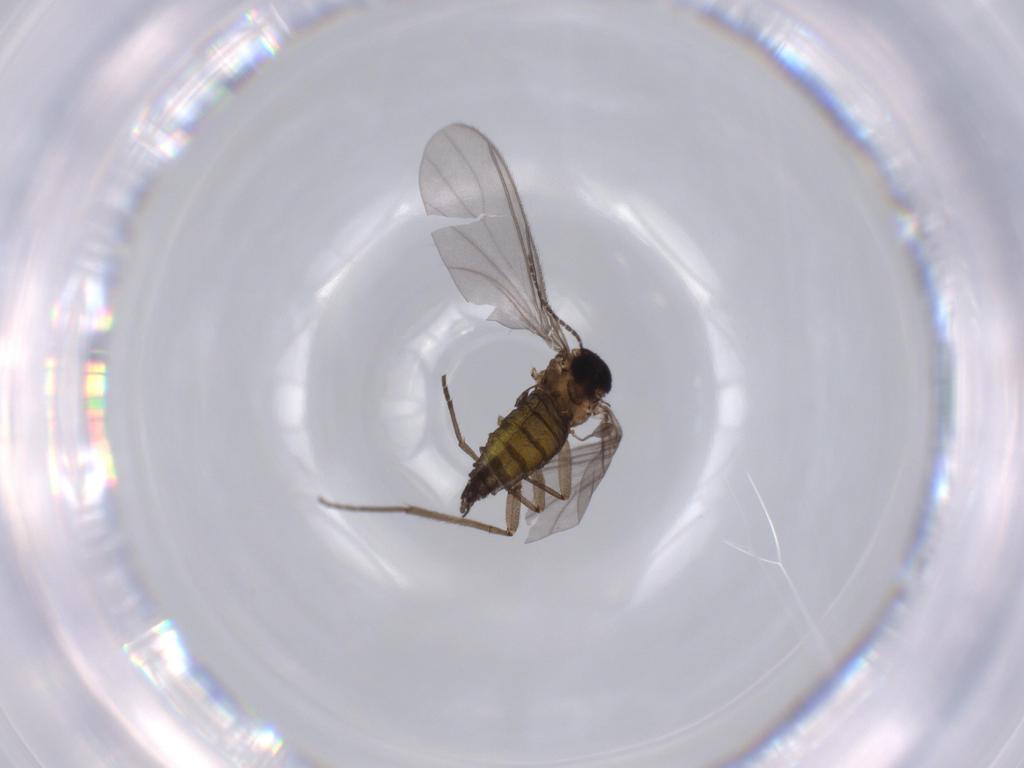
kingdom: Animalia
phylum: Arthropoda
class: Insecta
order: Diptera
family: Sciaridae
